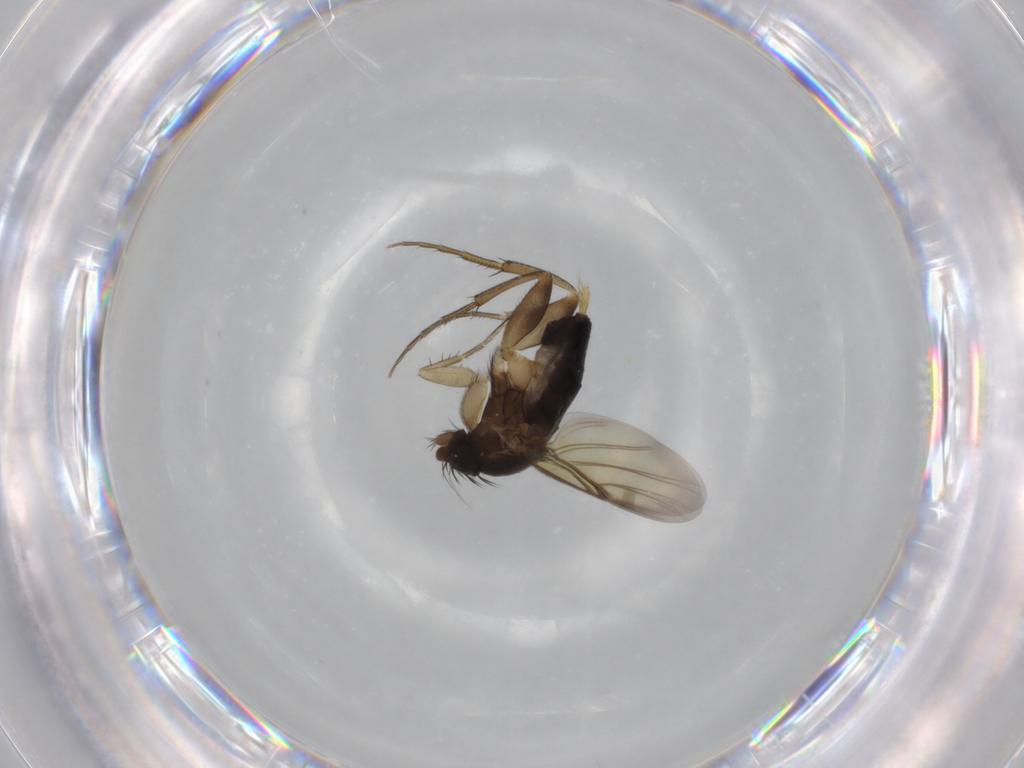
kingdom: Animalia
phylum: Arthropoda
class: Insecta
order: Diptera
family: Phoridae
